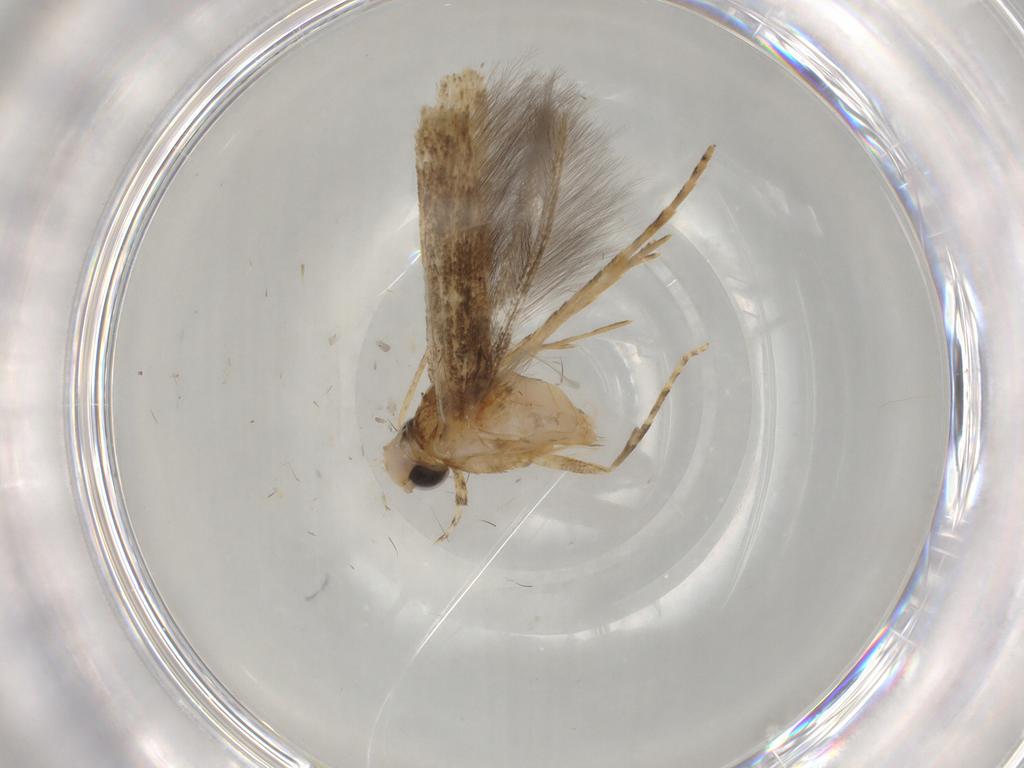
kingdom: Animalia
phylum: Arthropoda
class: Insecta
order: Lepidoptera
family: Batrachedridae
